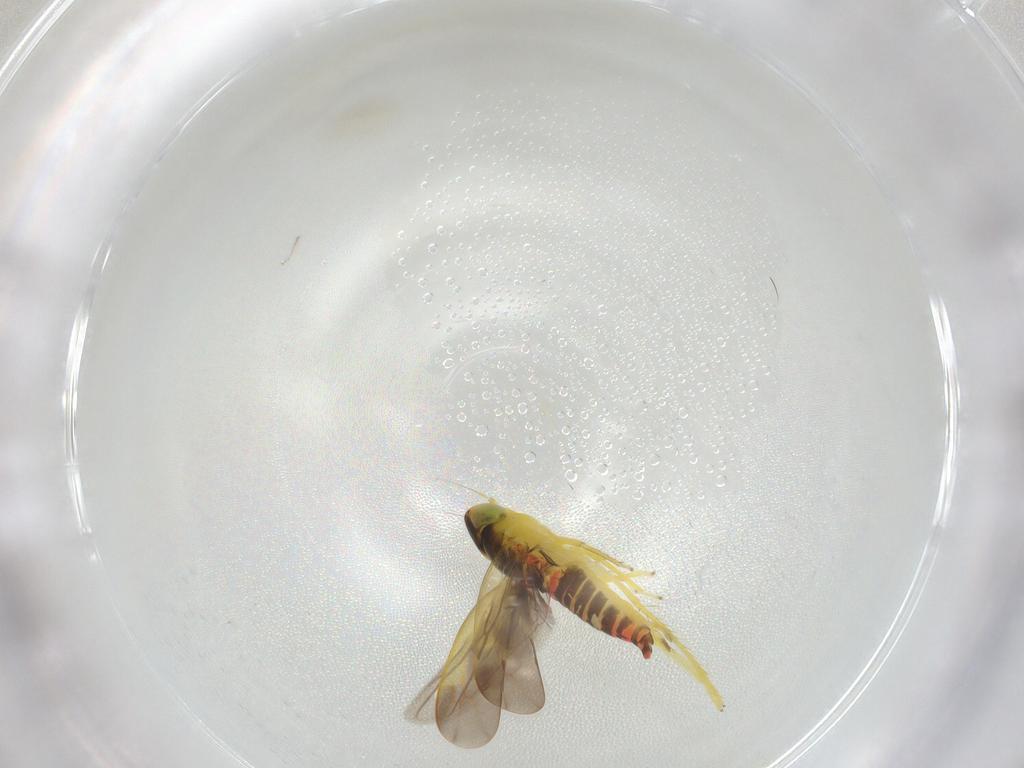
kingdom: Animalia
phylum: Arthropoda
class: Insecta
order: Hemiptera
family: Cicadellidae
